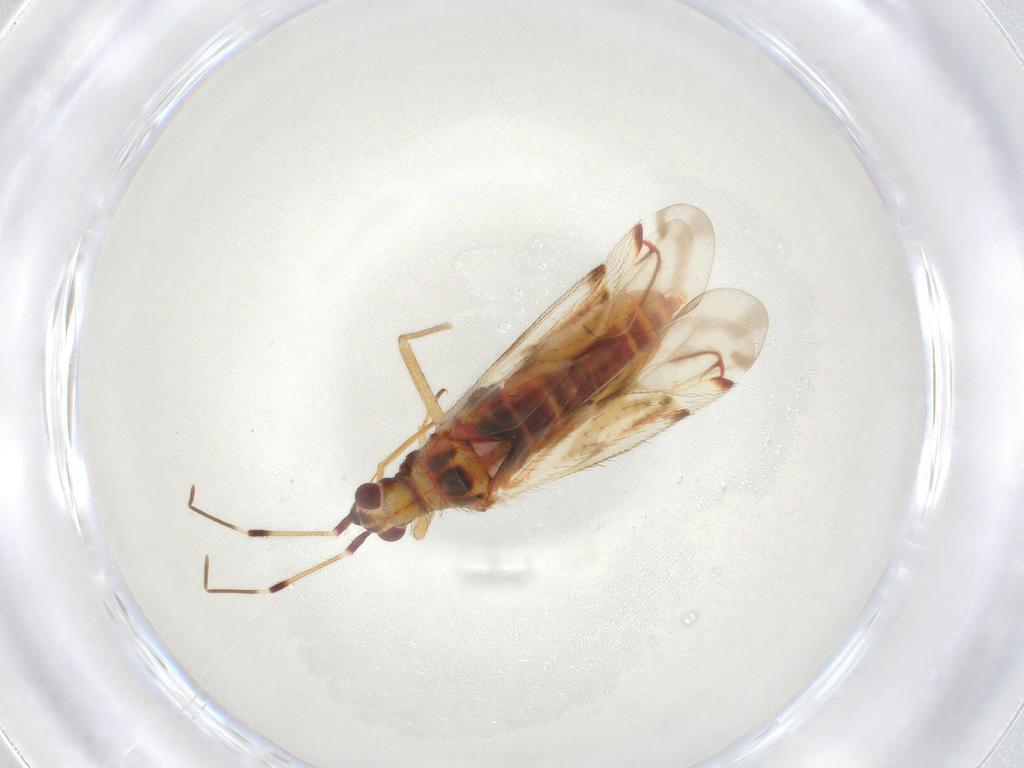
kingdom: Animalia
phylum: Arthropoda
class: Insecta
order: Hemiptera
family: Miridae
